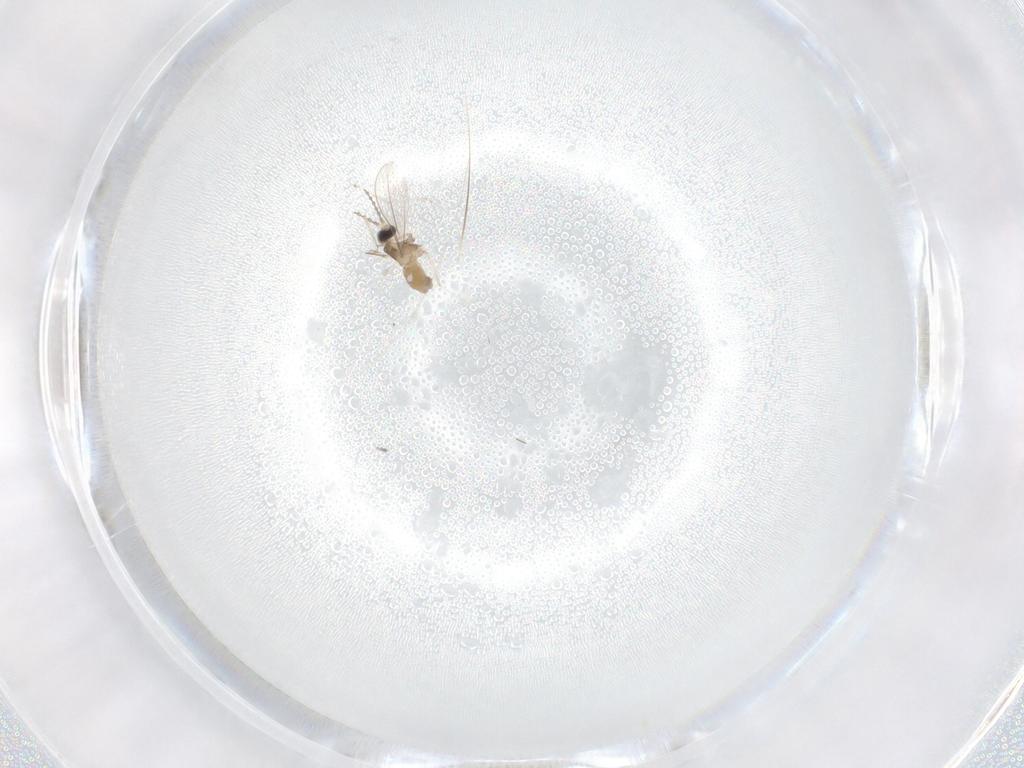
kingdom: Animalia
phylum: Arthropoda
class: Insecta
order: Diptera
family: Cecidomyiidae
